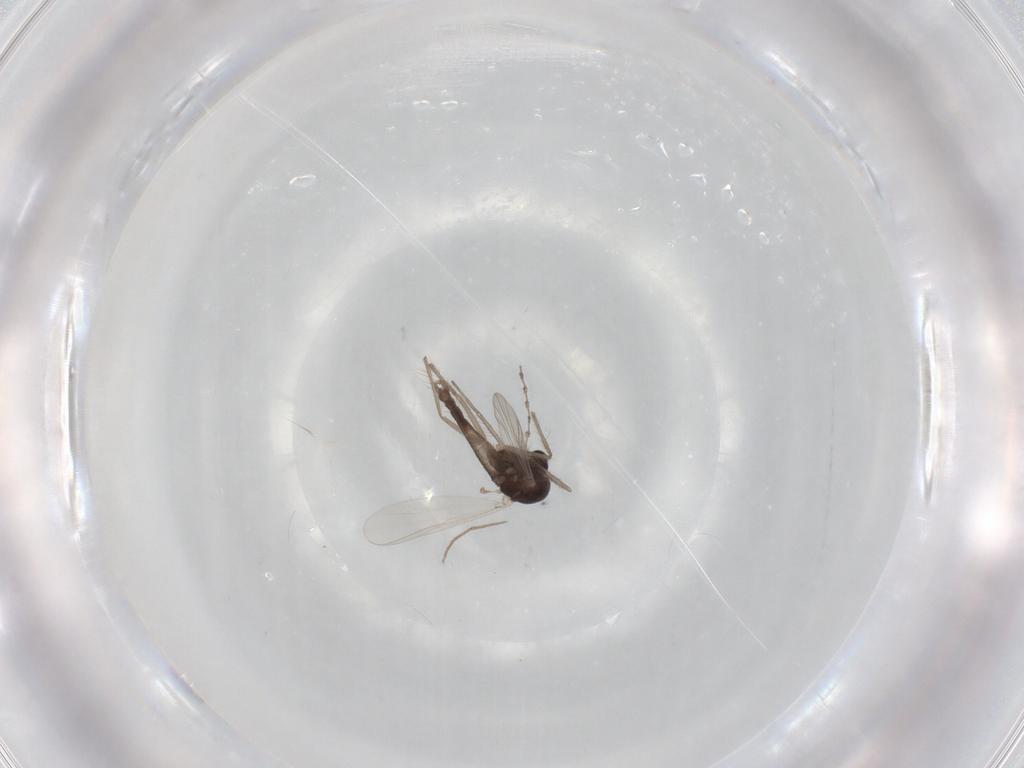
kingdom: Animalia
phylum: Arthropoda
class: Insecta
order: Diptera
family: Chironomidae
